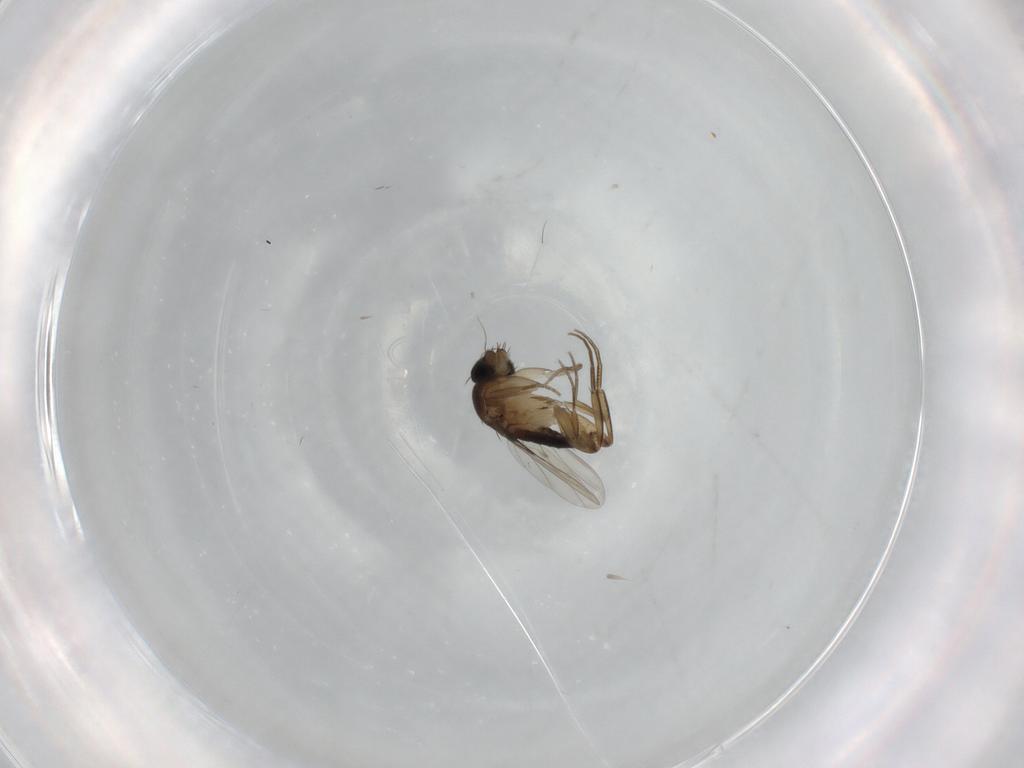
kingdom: Animalia
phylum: Arthropoda
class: Insecta
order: Diptera
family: Phoridae
